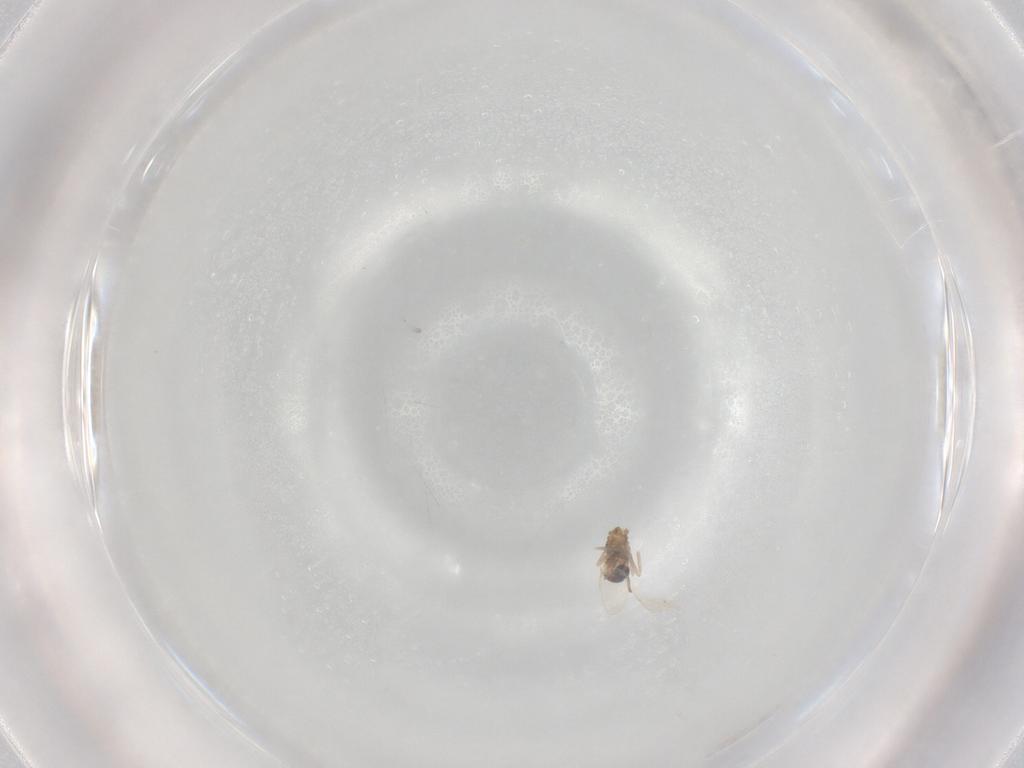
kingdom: Animalia
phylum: Arthropoda
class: Insecta
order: Diptera
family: Cecidomyiidae
